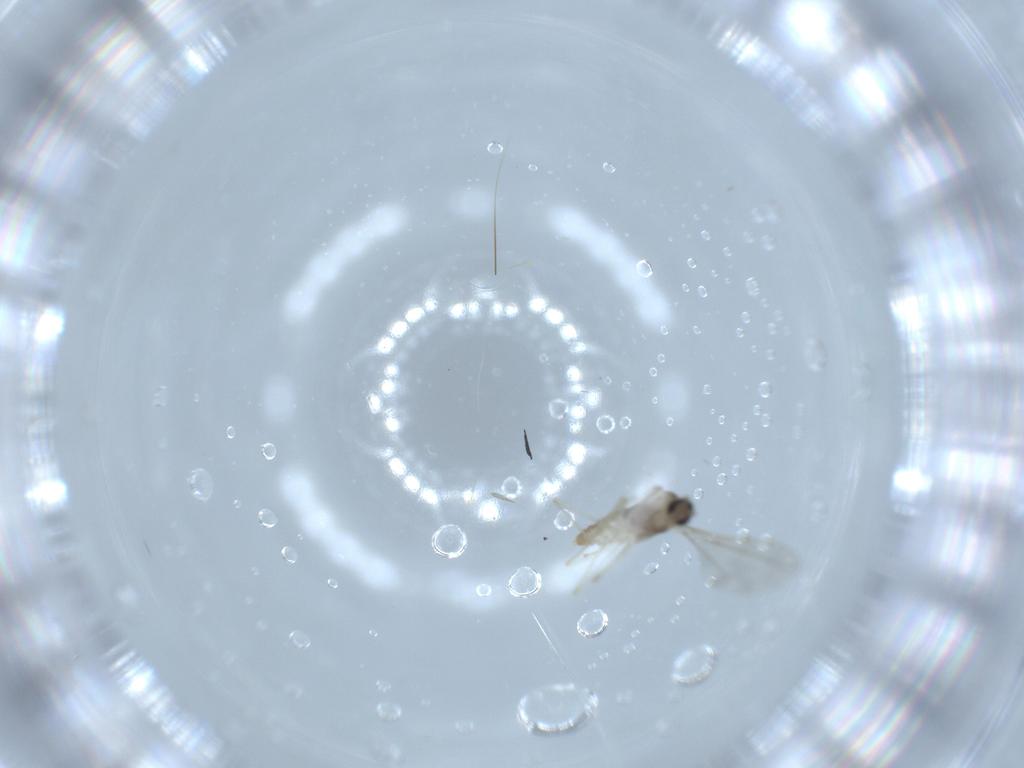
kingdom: Animalia
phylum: Arthropoda
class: Insecta
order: Diptera
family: Cecidomyiidae
